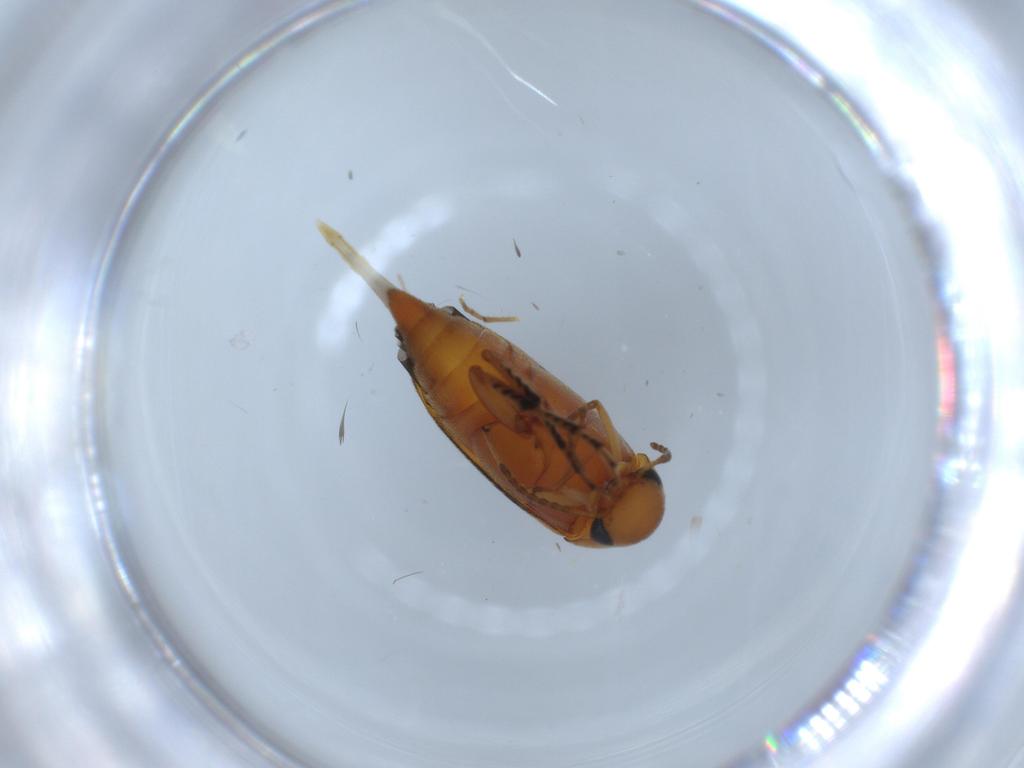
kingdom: Animalia
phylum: Arthropoda
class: Insecta
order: Coleoptera
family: Mordellidae
